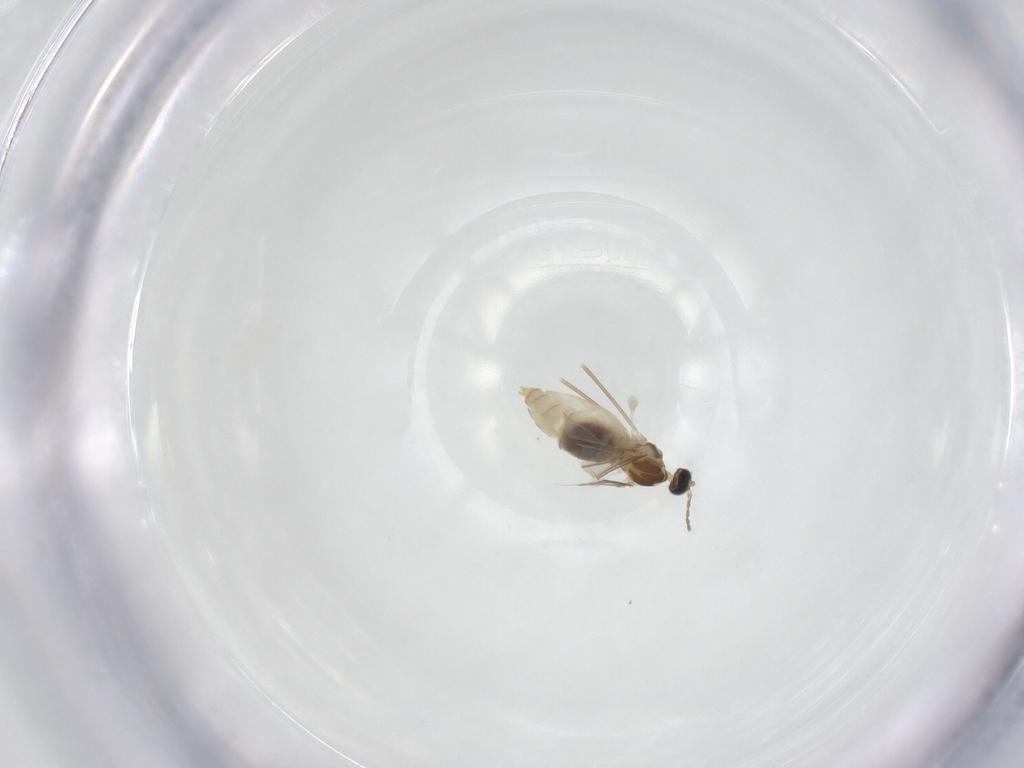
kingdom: Animalia
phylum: Arthropoda
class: Insecta
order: Diptera
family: Cecidomyiidae
